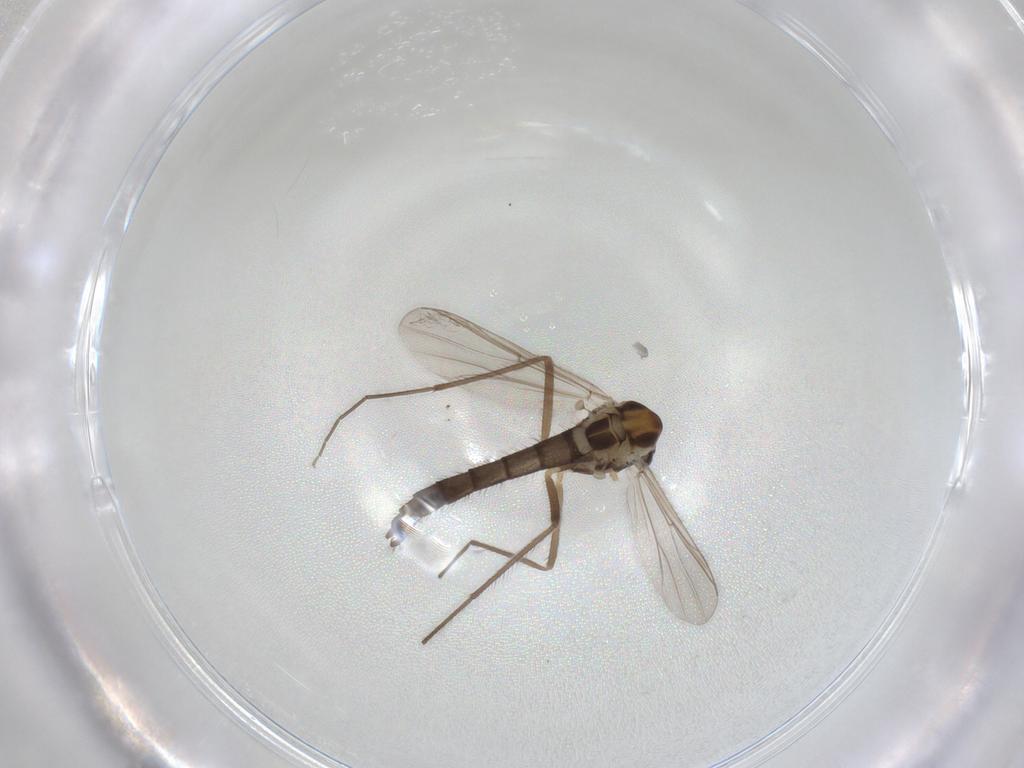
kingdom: Animalia
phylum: Arthropoda
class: Insecta
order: Diptera
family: Chironomidae
